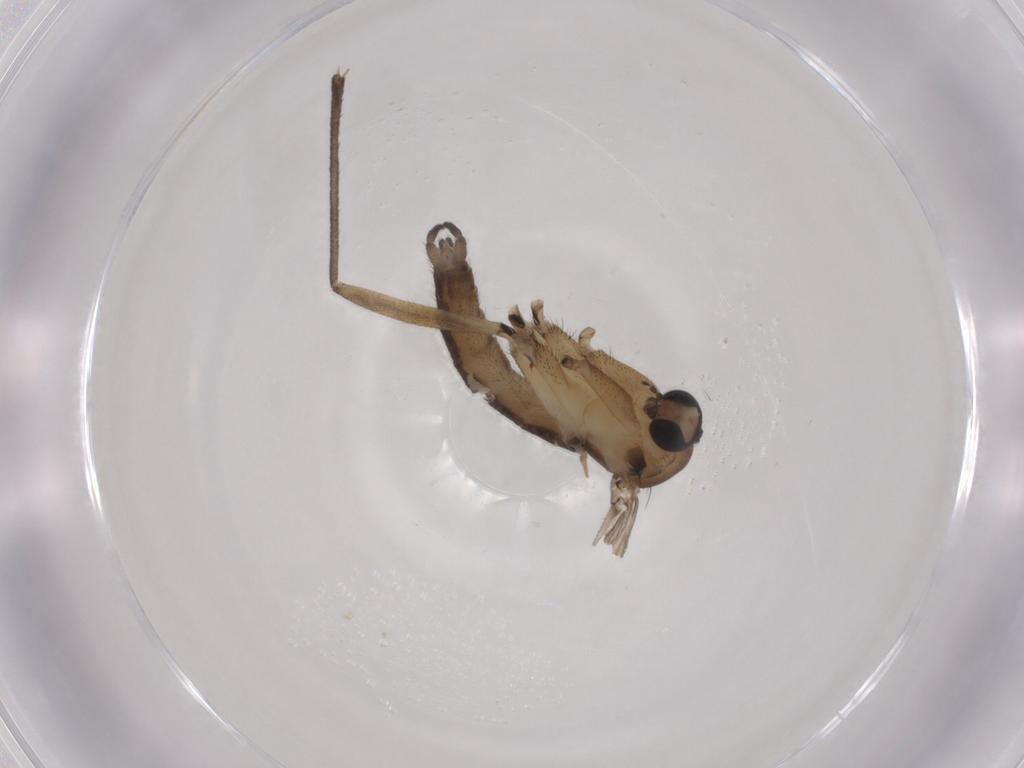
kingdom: Animalia
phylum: Arthropoda
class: Insecta
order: Diptera
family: Sciaridae
